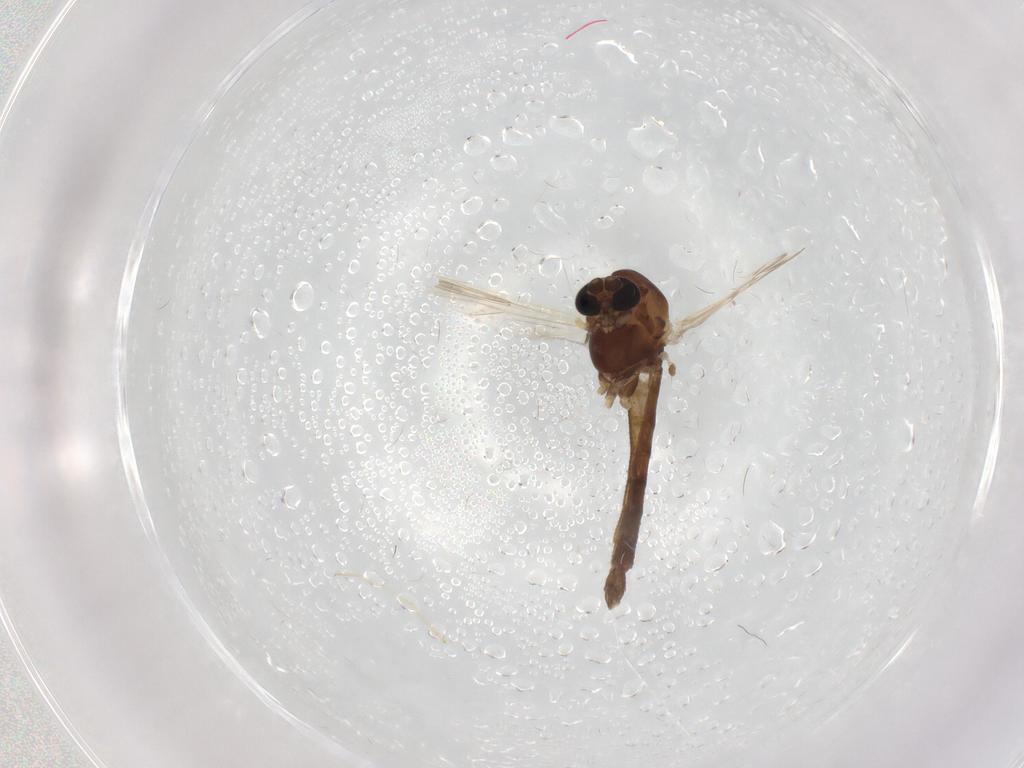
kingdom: Animalia
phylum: Arthropoda
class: Insecta
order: Diptera
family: Chironomidae
